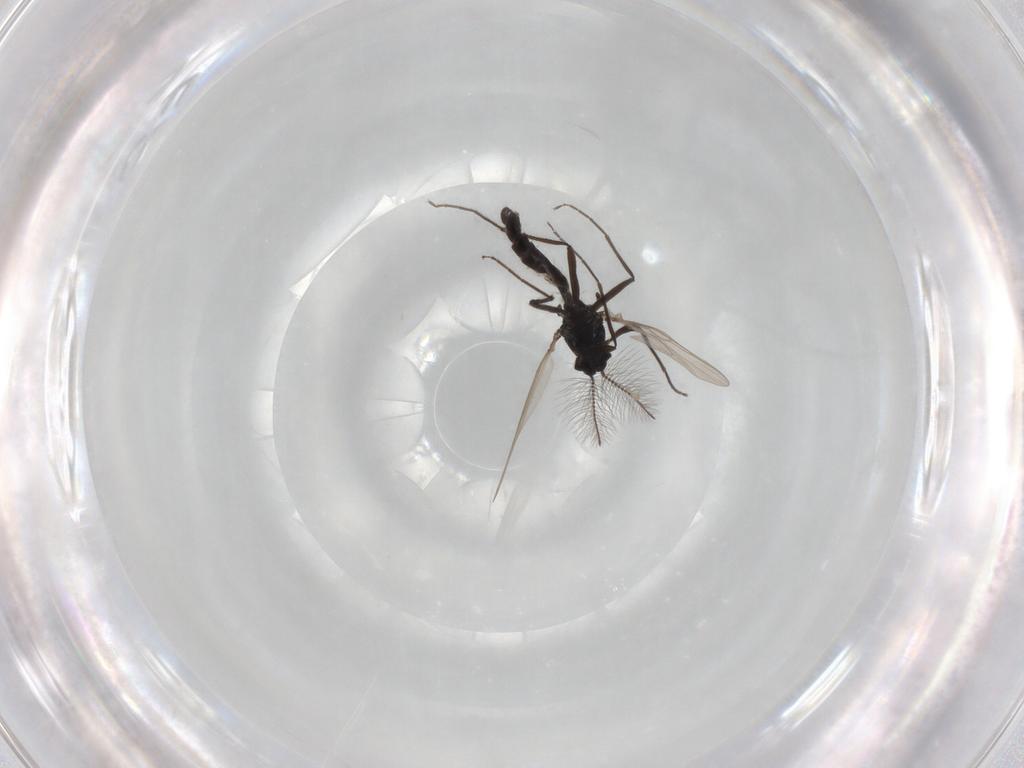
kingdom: Animalia
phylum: Arthropoda
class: Insecta
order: Diptera
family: Chironomidae
